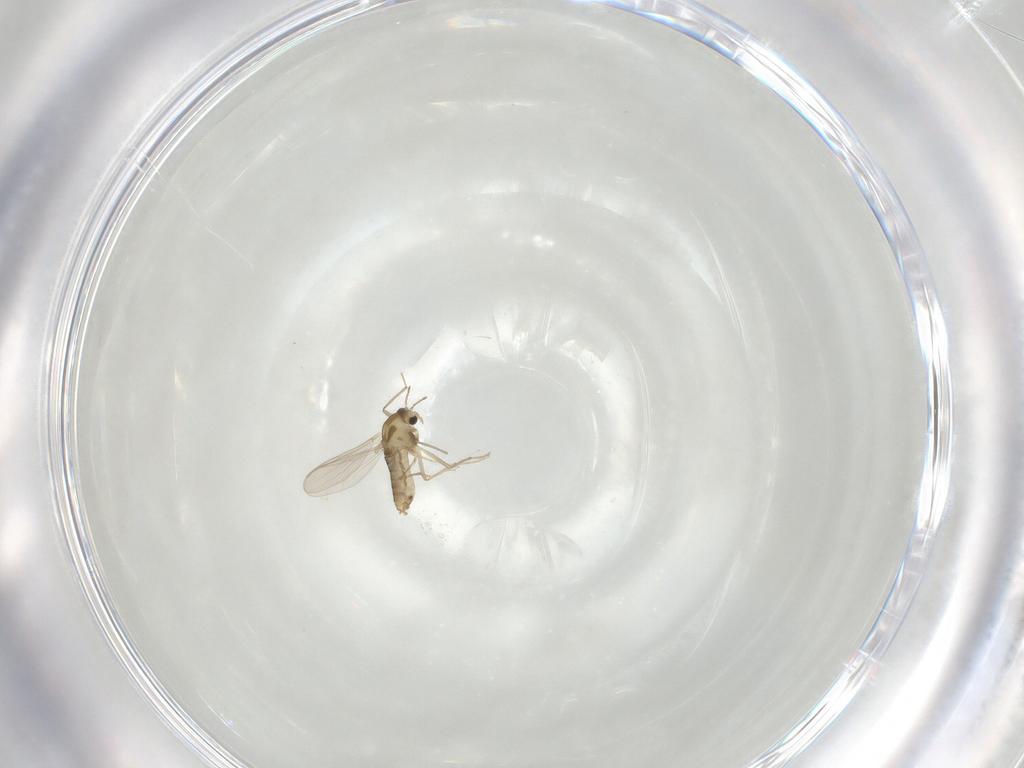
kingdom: Animalia
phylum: Arthropoda
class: Insecta
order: Diptera
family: Chironomidae
